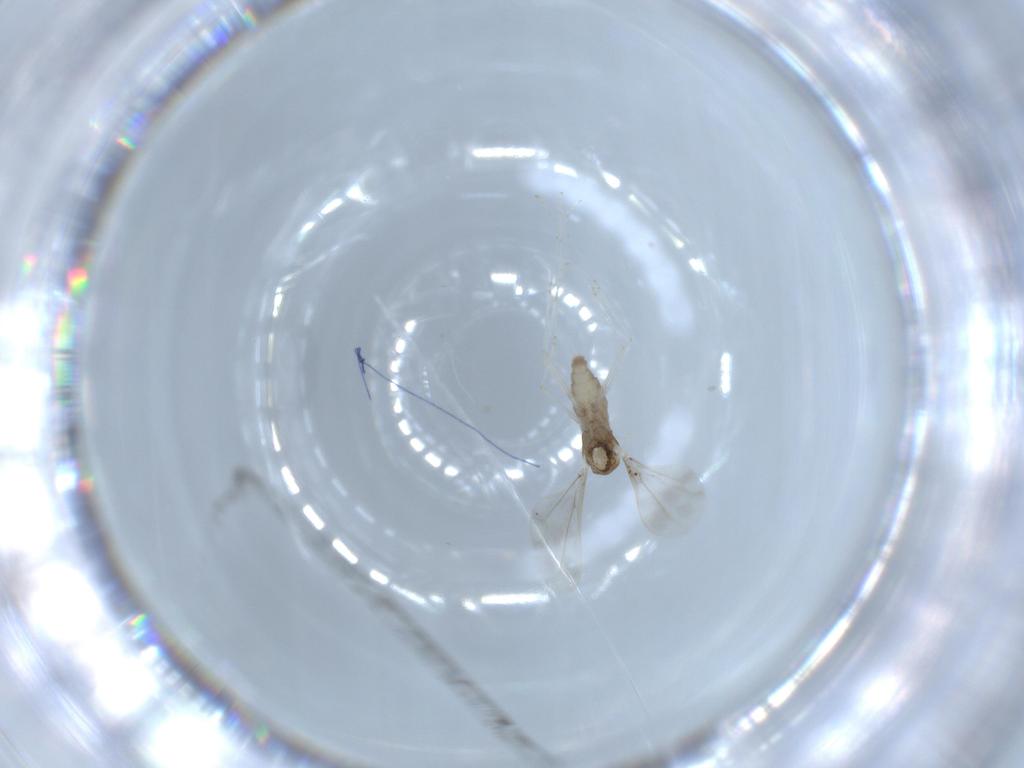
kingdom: Animalia
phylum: Arthropoda
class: Insecta
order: Diptera
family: Cecidomyiidae
